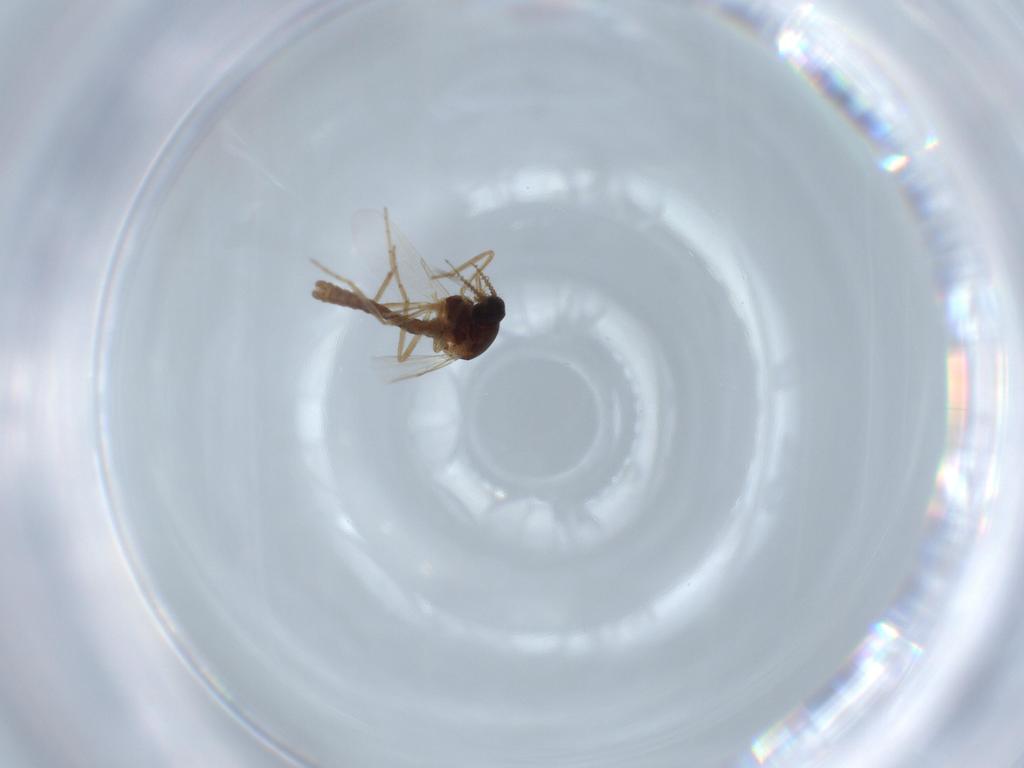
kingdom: Animalia
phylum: Arthropoda
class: Insecta
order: Diptera
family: Ceratopogonidae
